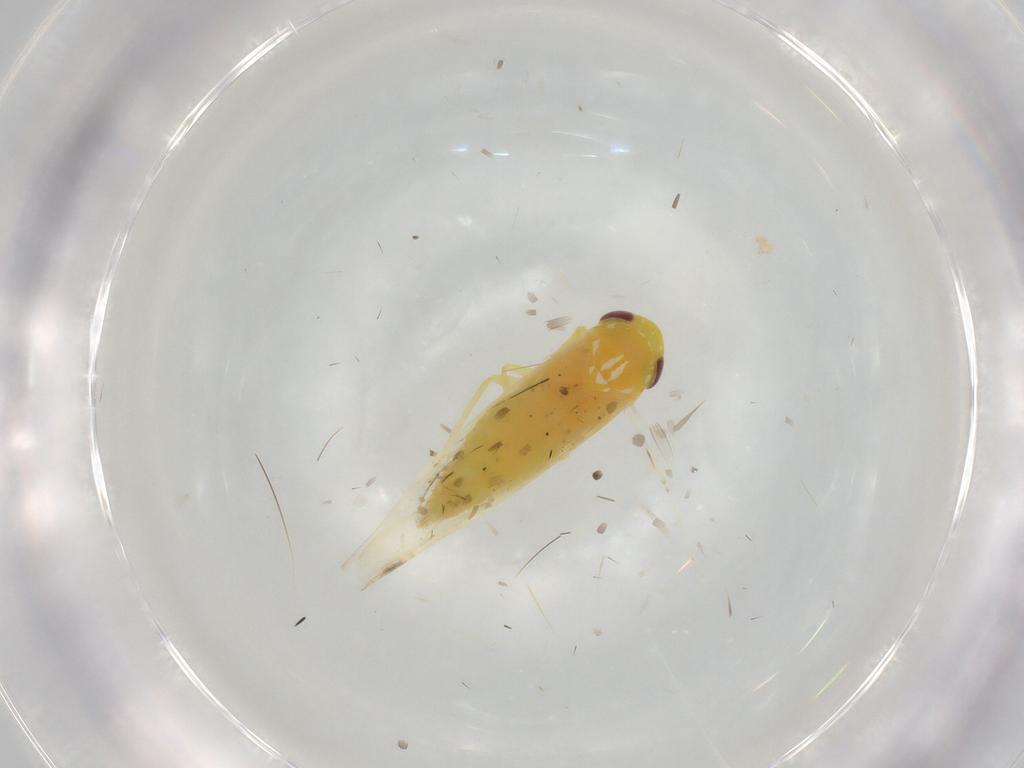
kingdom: Animalia
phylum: Arthropoda
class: Insecta
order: Hemiptera
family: Cicadellidae
